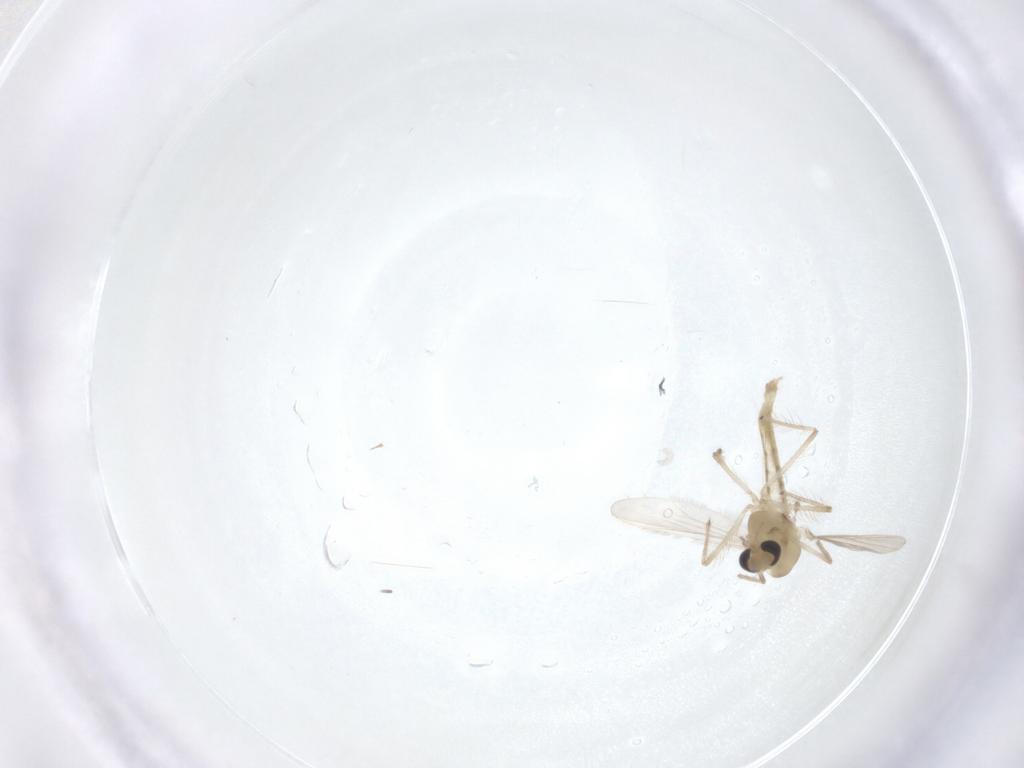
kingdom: Animalia
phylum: Arthropoda
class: Insecta
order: Diptera
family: Chironomidae
